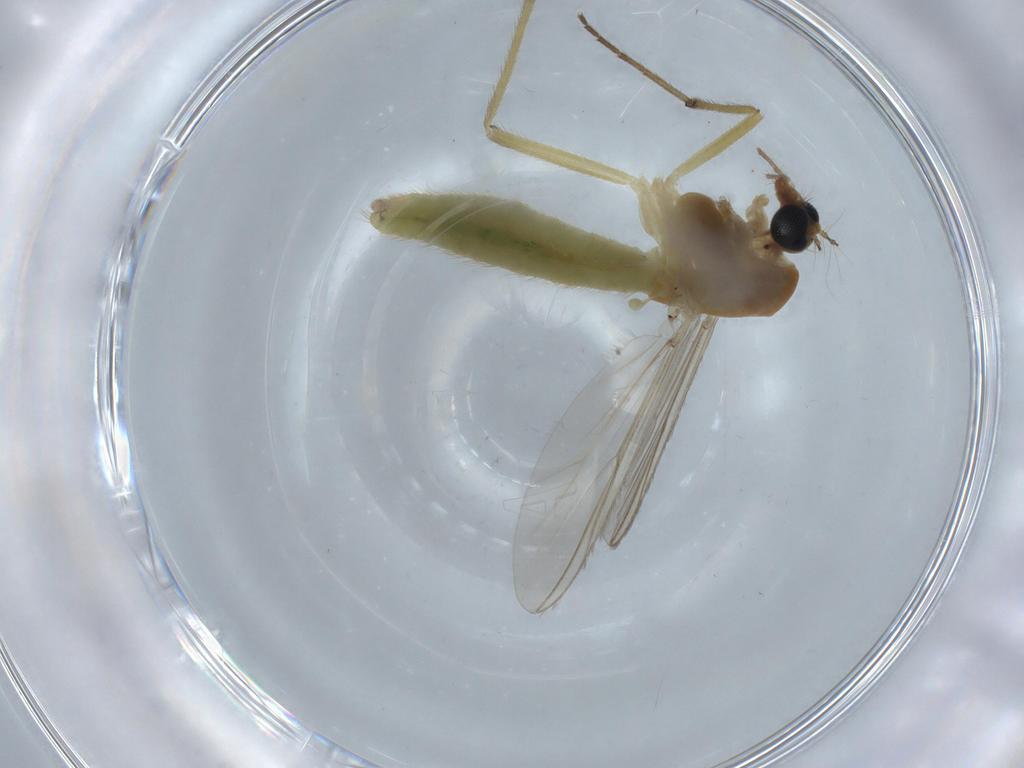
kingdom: Animalia
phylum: Arthropoda
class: Insecta
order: Diptera
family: Chironomidae
